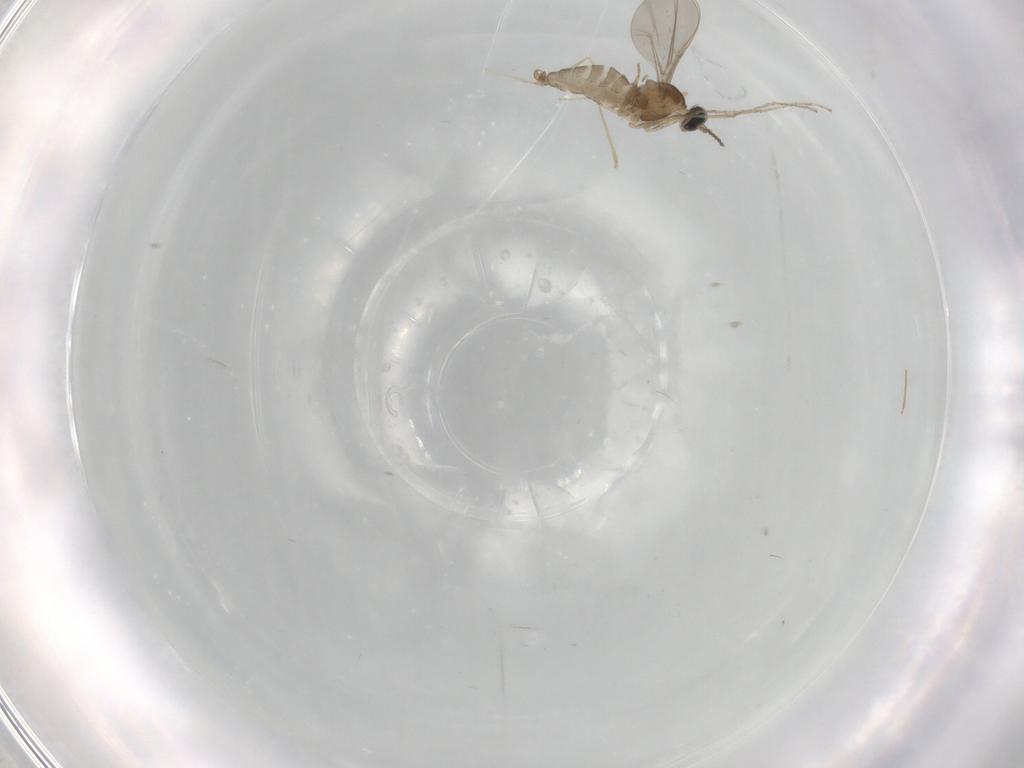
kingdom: Animalia
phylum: Arthropoda
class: Insecta
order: Diptera
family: Cecidomyiidae
